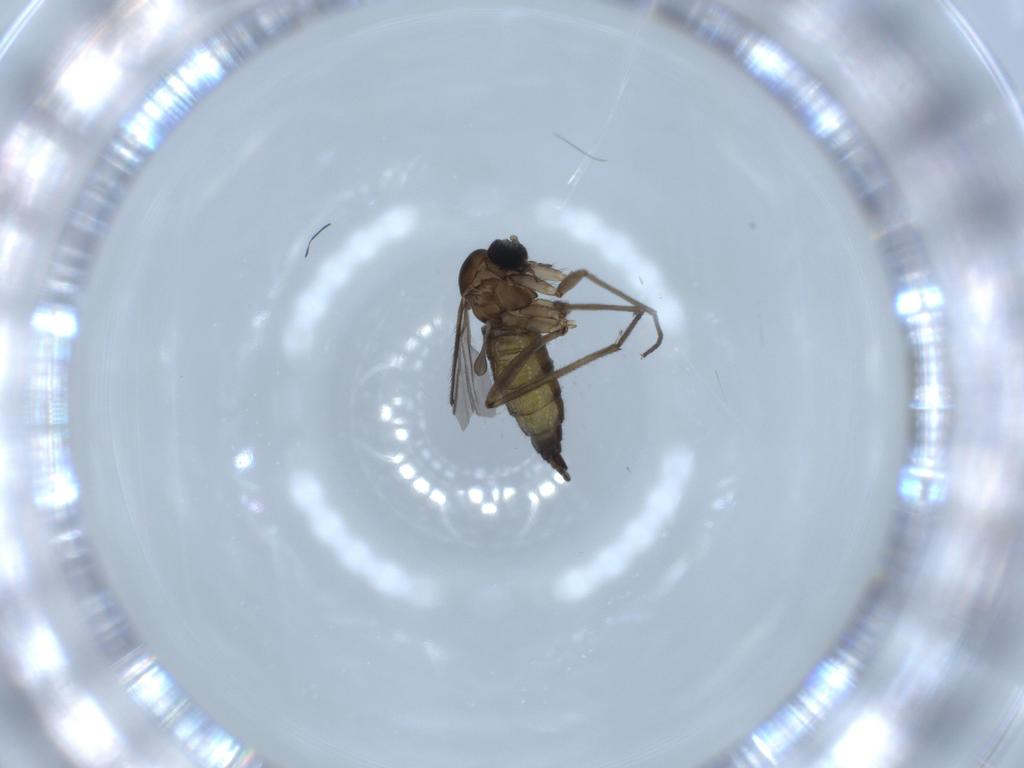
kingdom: Animalia
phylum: Arthropoda
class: Insecta
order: Diptera
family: Sciaridae
